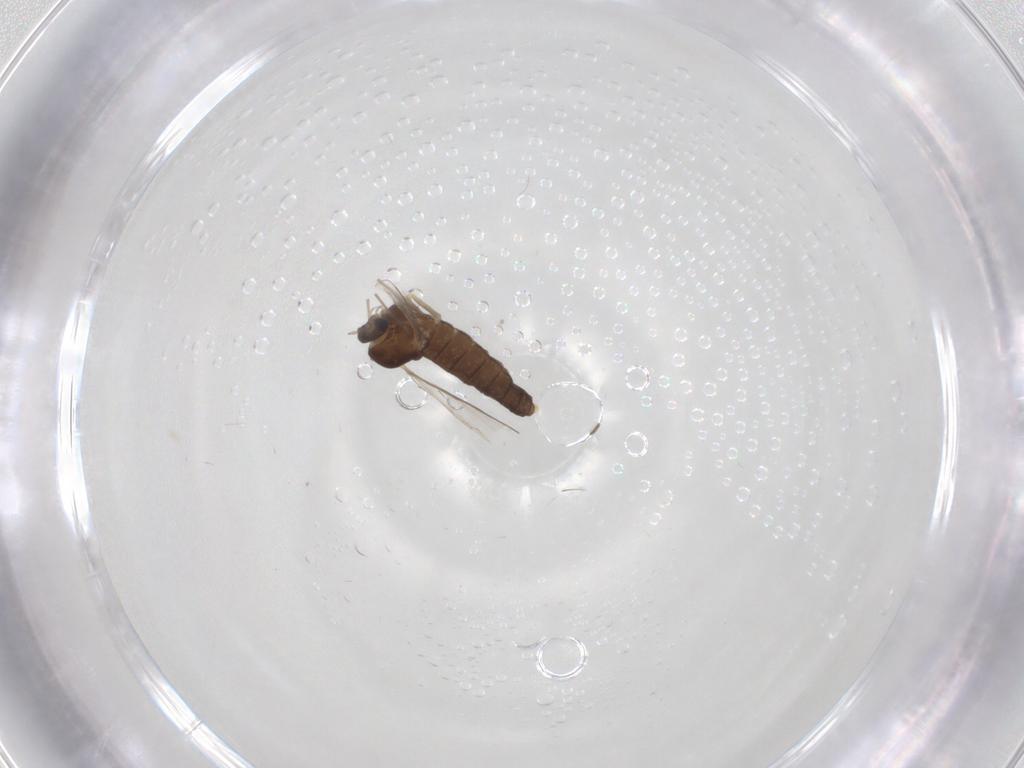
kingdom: Animalia
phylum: Arthropoda
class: Insecta
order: Diptera
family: Chironomidae
